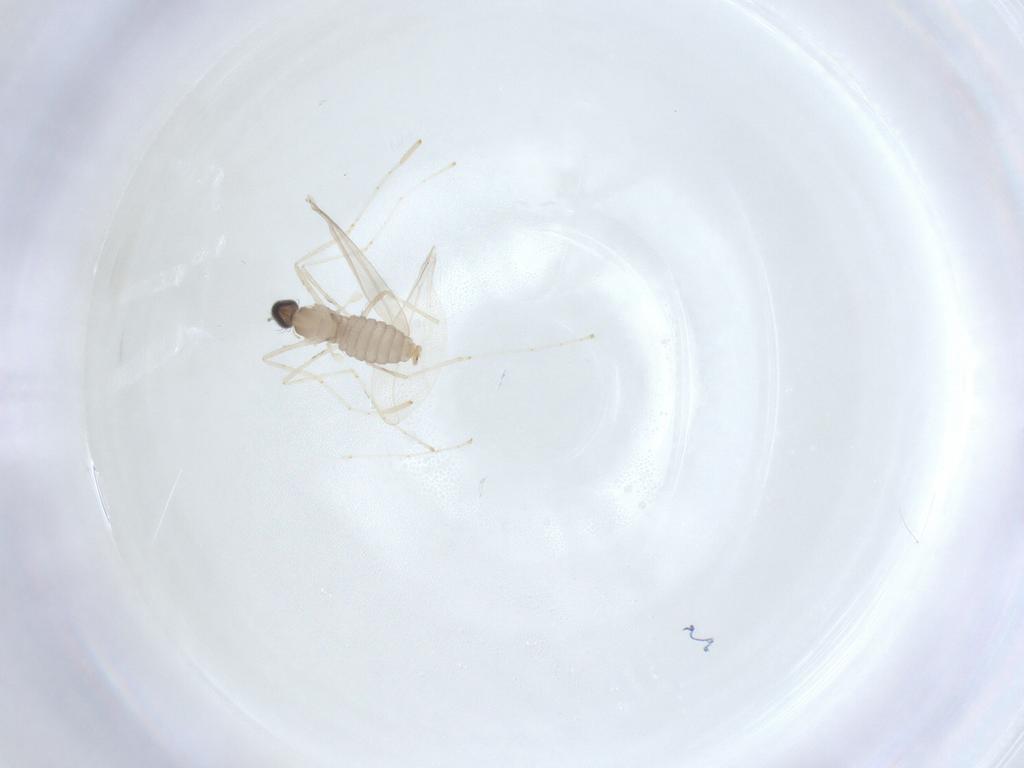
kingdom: Animalia
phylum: Arthropoda
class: Insecta
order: Diptera
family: Cecidomyiidae
